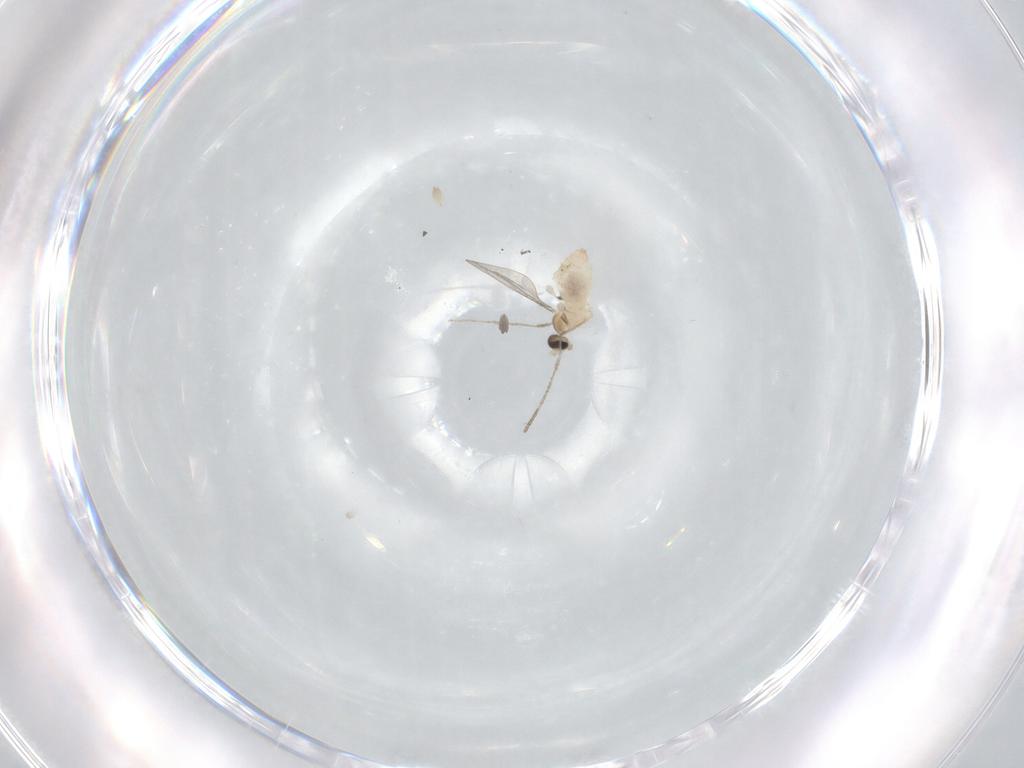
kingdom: Animalia
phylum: Arthropoda
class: Insecta
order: Diptera
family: Cecidomyiidae
